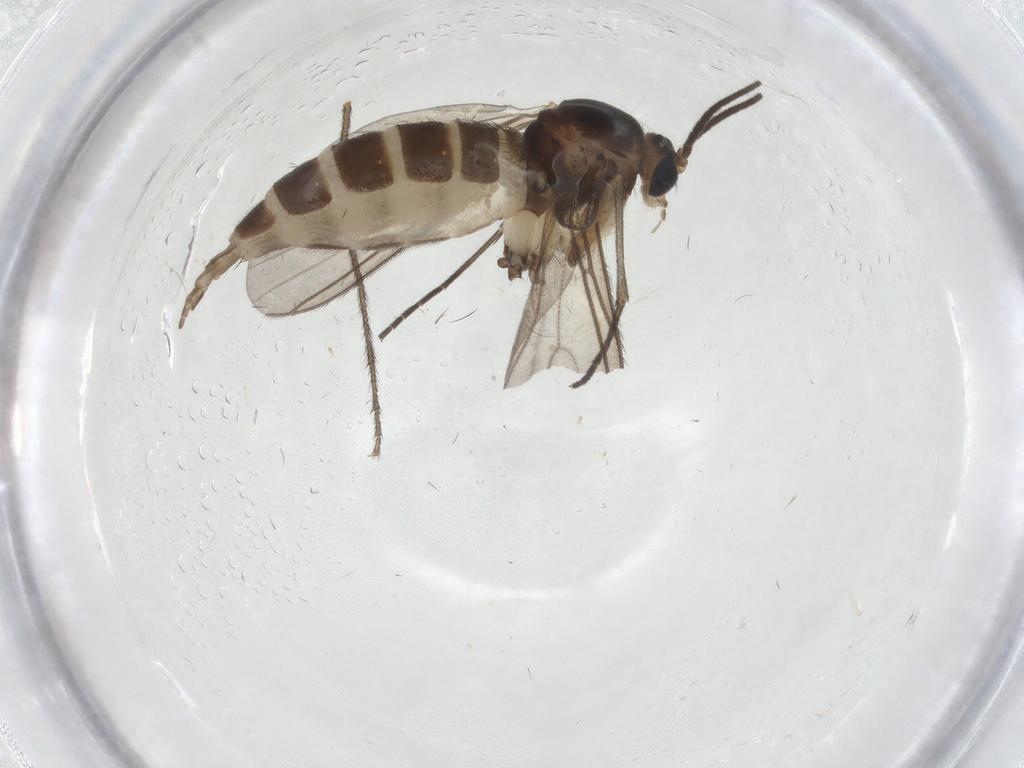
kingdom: Animalia
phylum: Arthropoda
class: Insecta
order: Diptera
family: Sciaridae
